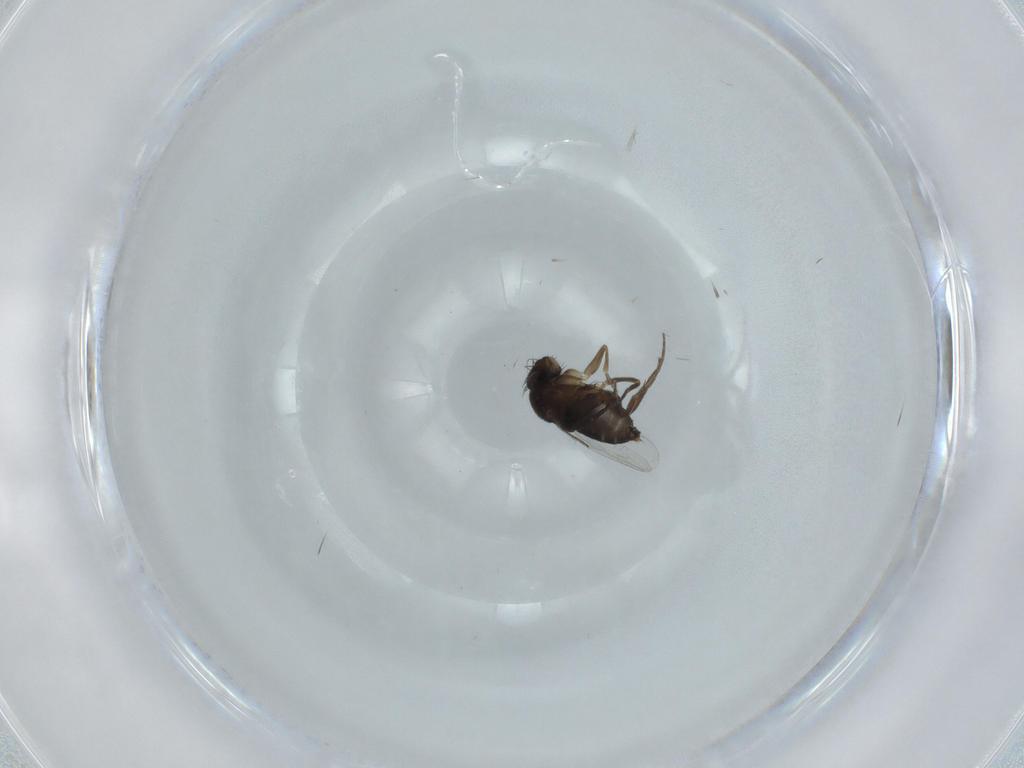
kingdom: Animalia
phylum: Arthropoda
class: Insecta
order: Diptera
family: Phoridae
